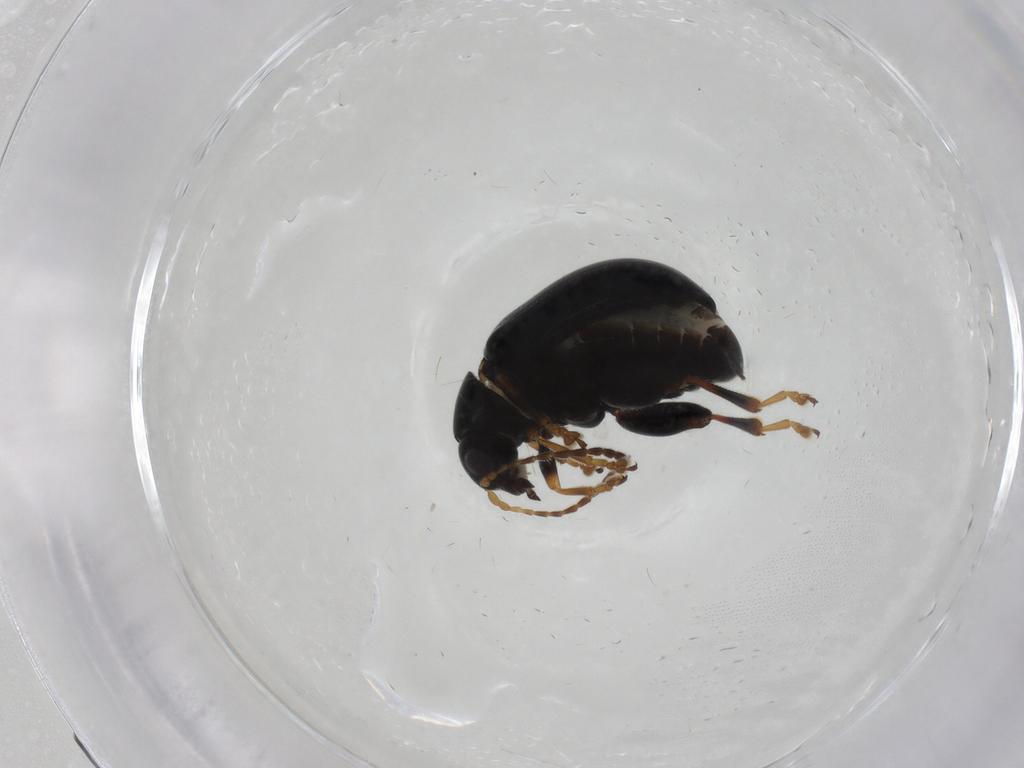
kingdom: Animalia
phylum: Arthropoda
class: Insecta
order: Coleoptera
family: Chrysomelidae
